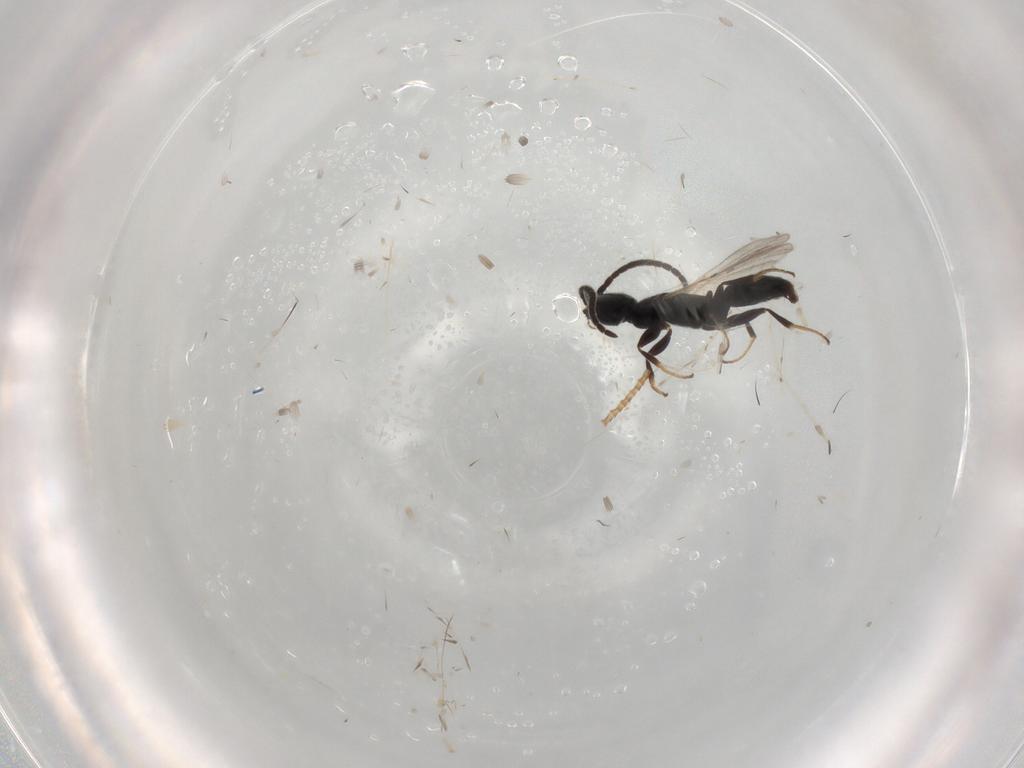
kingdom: Animalia
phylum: Arthropoda
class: Insecta
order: Hymenoptera
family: Bethylidae
